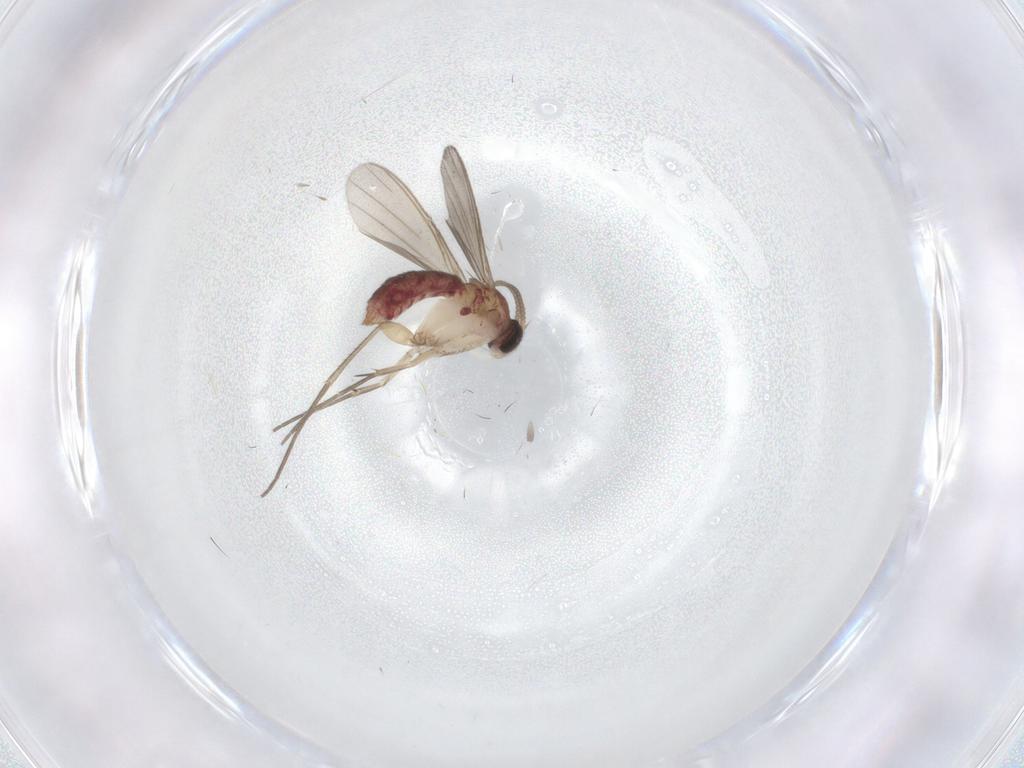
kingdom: Animalia
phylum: Arthropoda
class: Insecta
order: Diptera
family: Mycetophilidae
